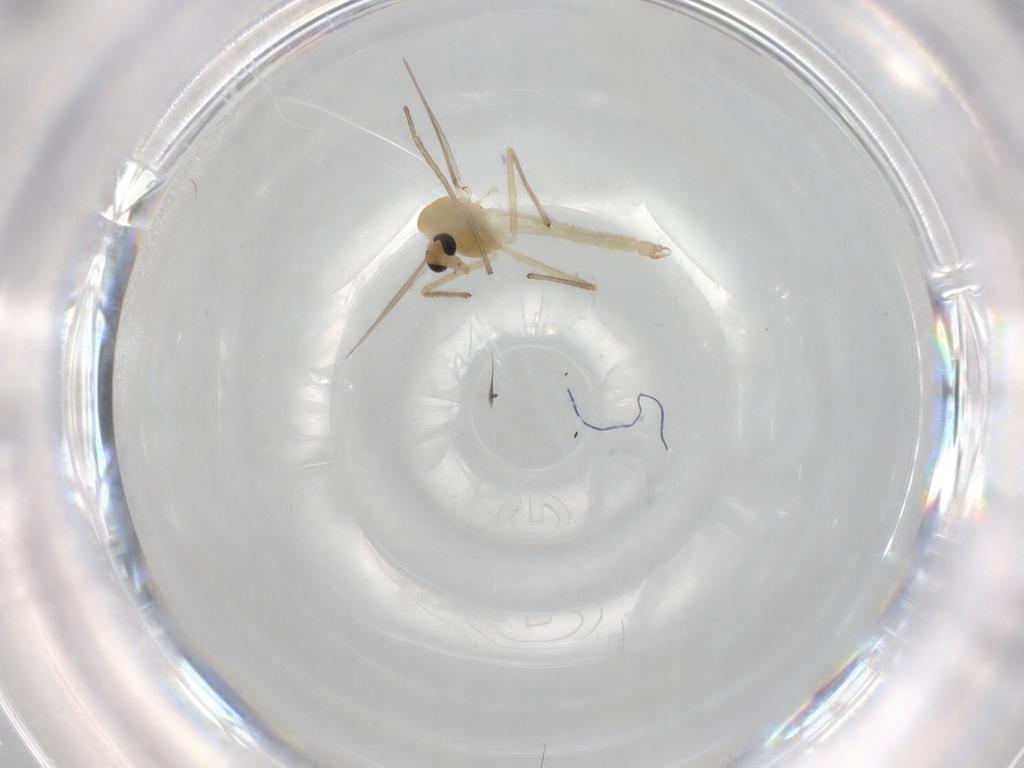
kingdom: Animalia
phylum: Arthropoda
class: Insecta
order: Diptera
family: Chironomidae
